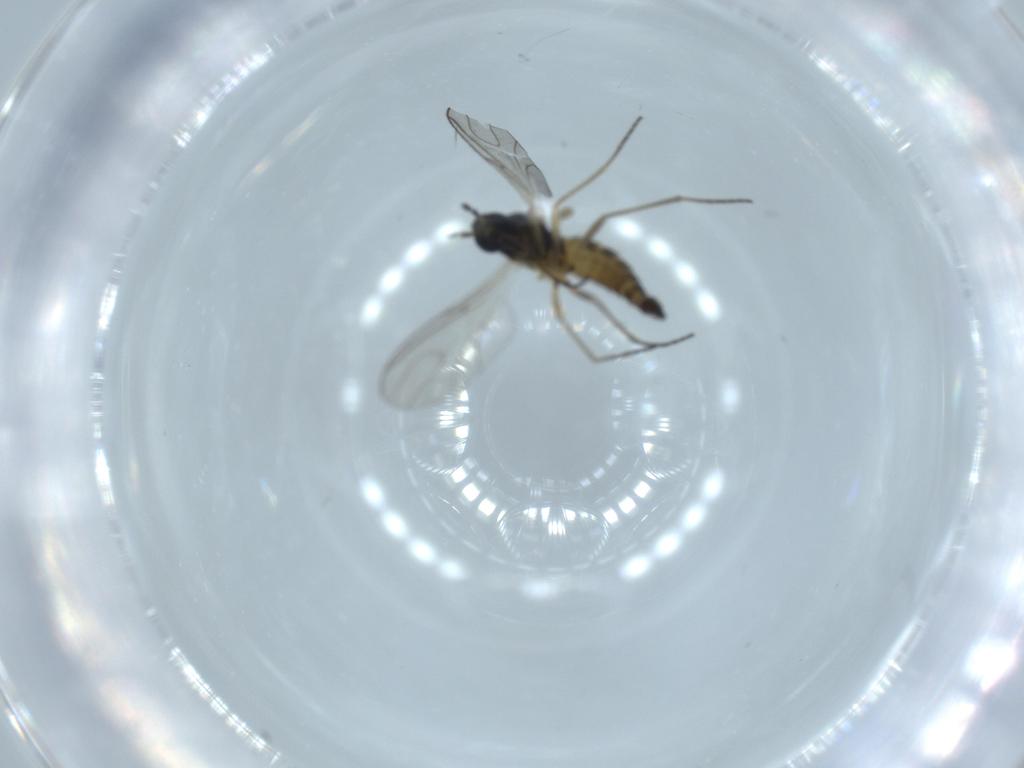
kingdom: Animalia
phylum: Arthropoda
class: Insecta
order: Diptera
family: Sciaridae
